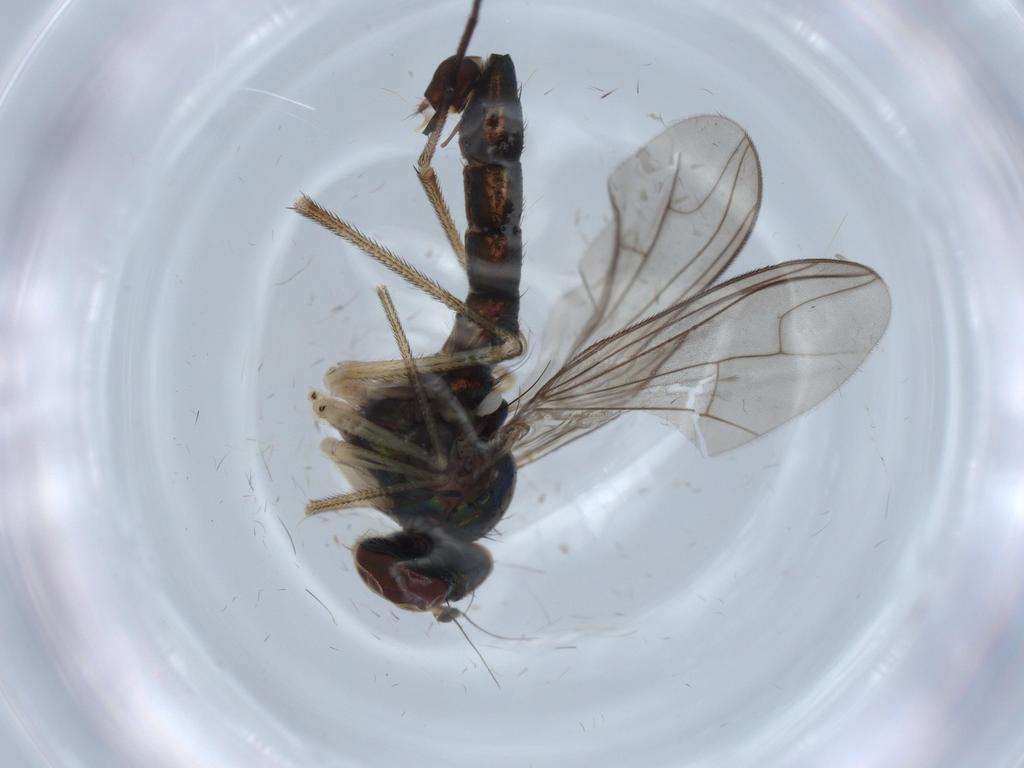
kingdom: Animalia
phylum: Arthropoda
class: Insecta
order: Diptera
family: Dolichopodidae
